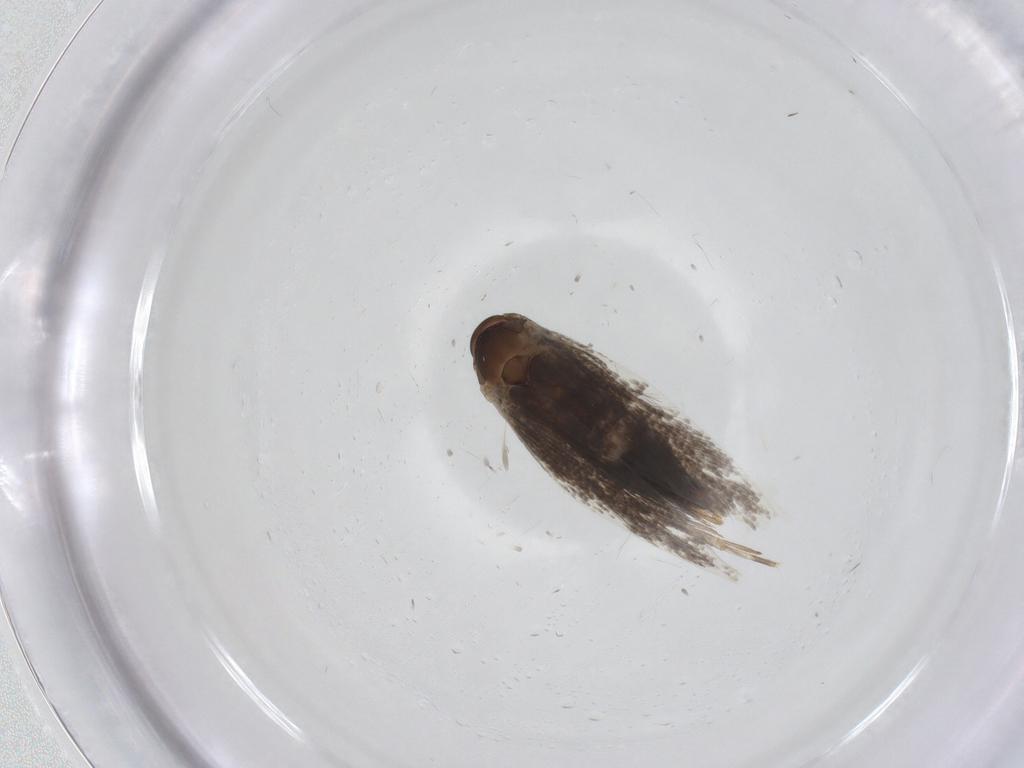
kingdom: Animalia
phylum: Arthropoda
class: Insecta
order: Lepidoptera
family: Elachistidae
